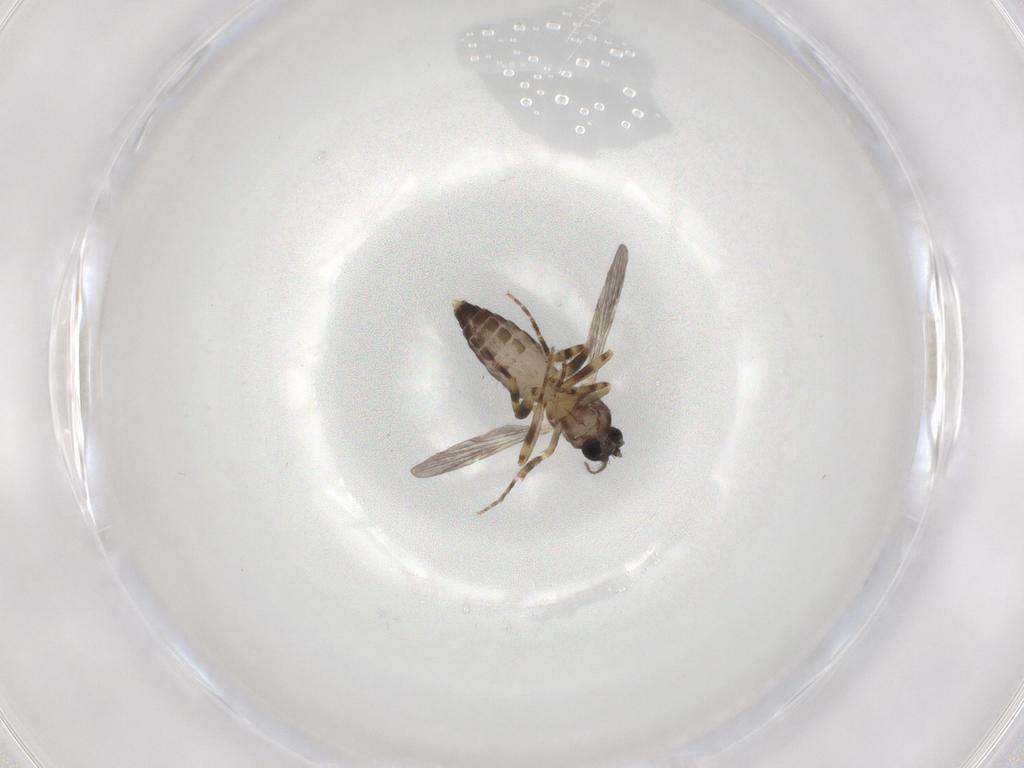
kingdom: Animalia
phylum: Arthropoda
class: Insecta
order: Diptera
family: Ceratopogonidae
